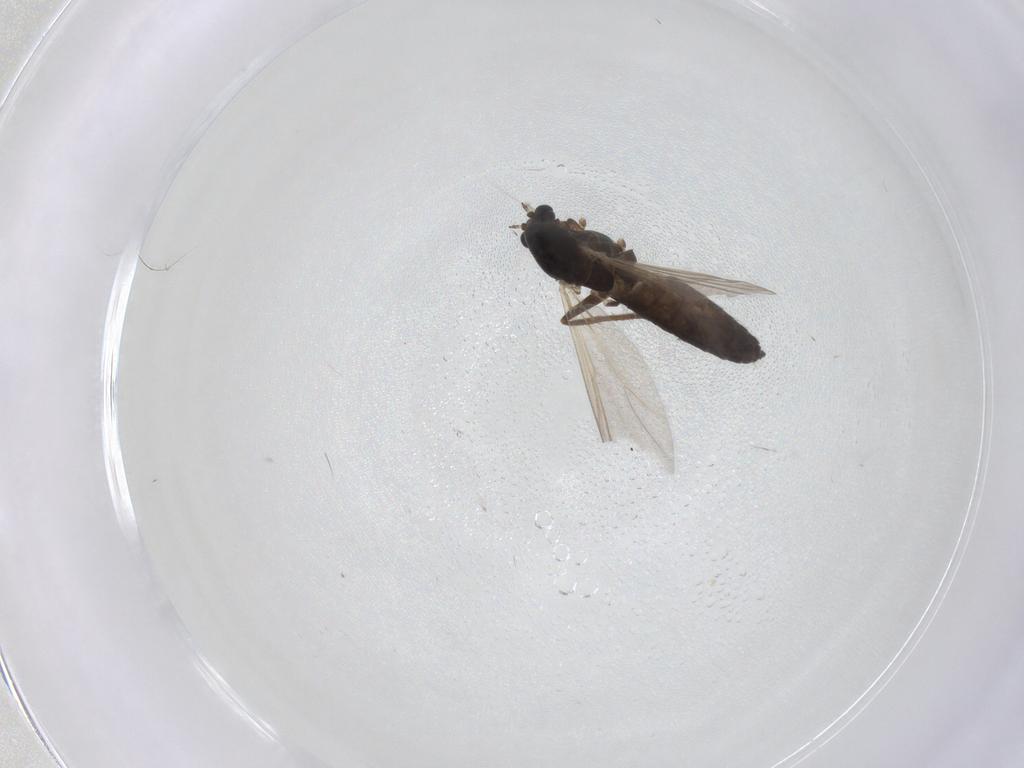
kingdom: Animalia
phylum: Arthropoda
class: Insecta
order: Diptera
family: Chironomidae
